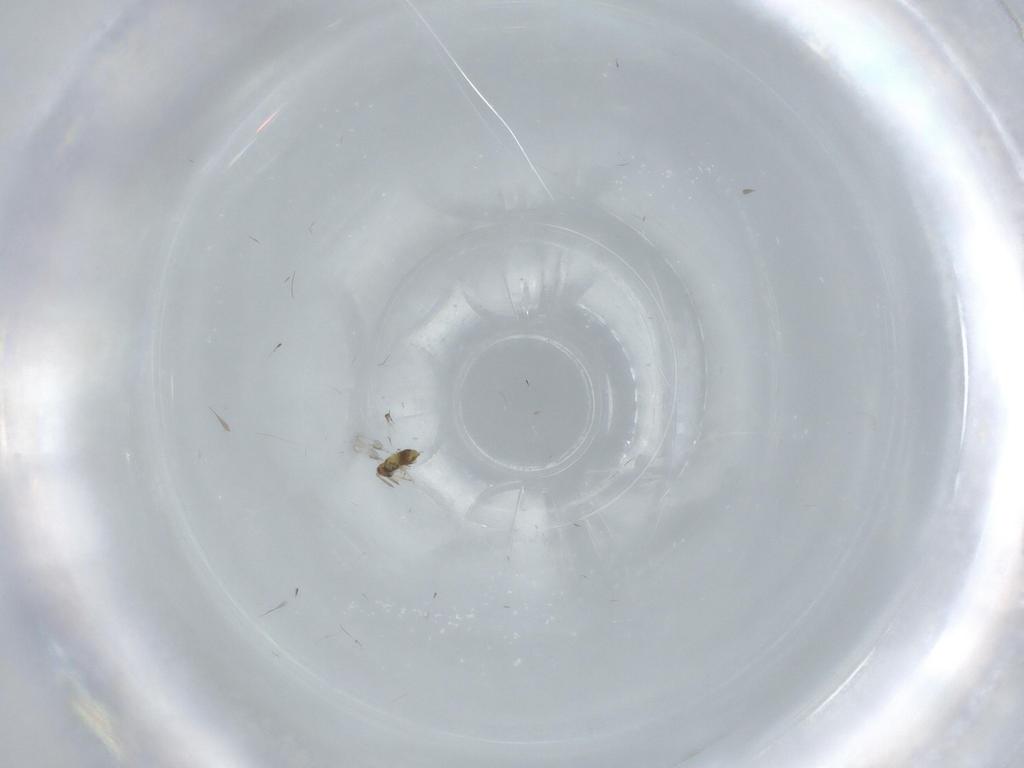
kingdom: Animalia
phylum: Arthropoda
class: Insecta
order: Hymenoptera
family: Aphelinidae
